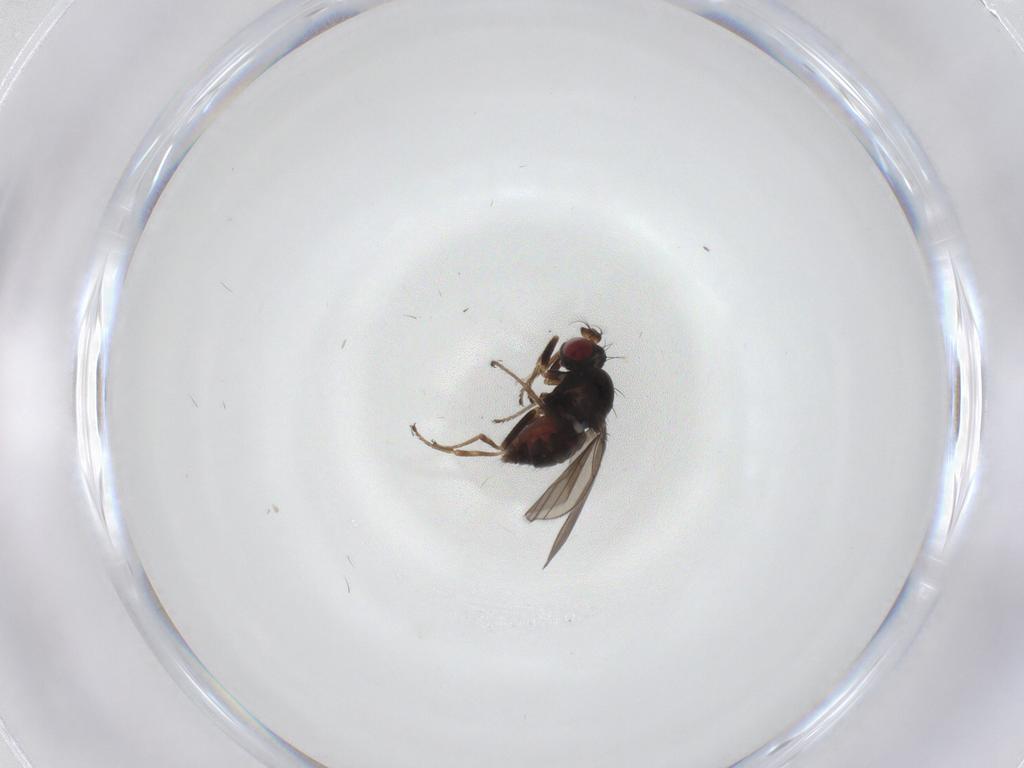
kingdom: Animalia
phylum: Arthropoda
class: Insecta
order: Diptera
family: Ephydridae
